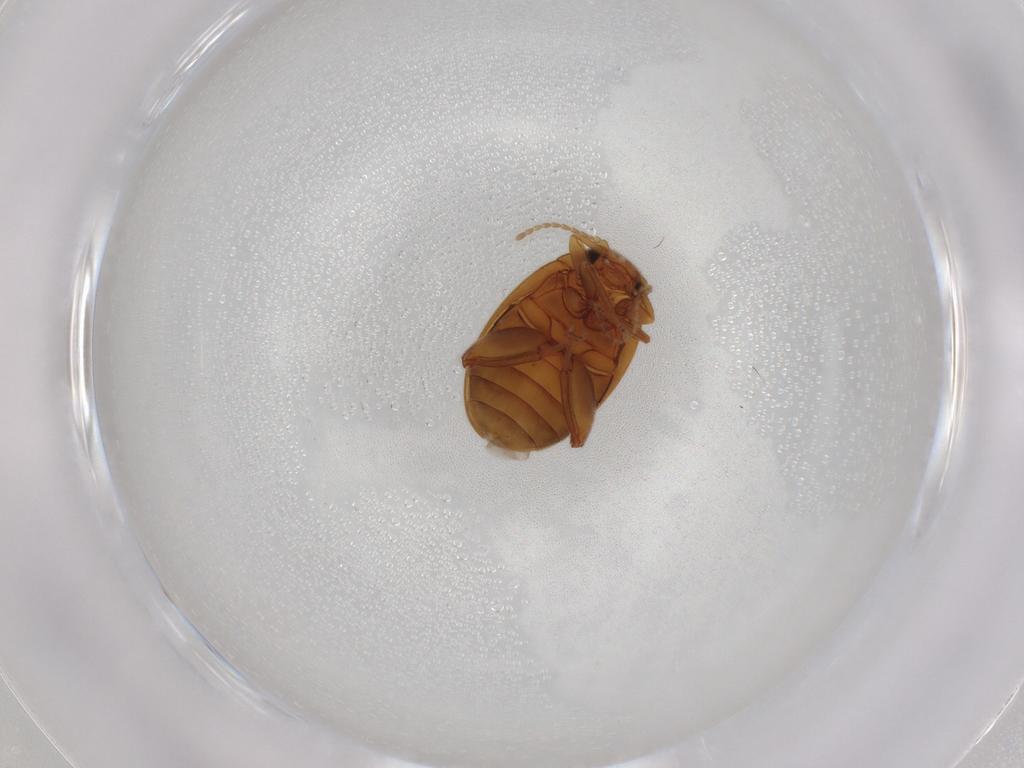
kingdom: Animalia
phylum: Arthropoda
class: Insecta
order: Coleoptera
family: Scirtidae
